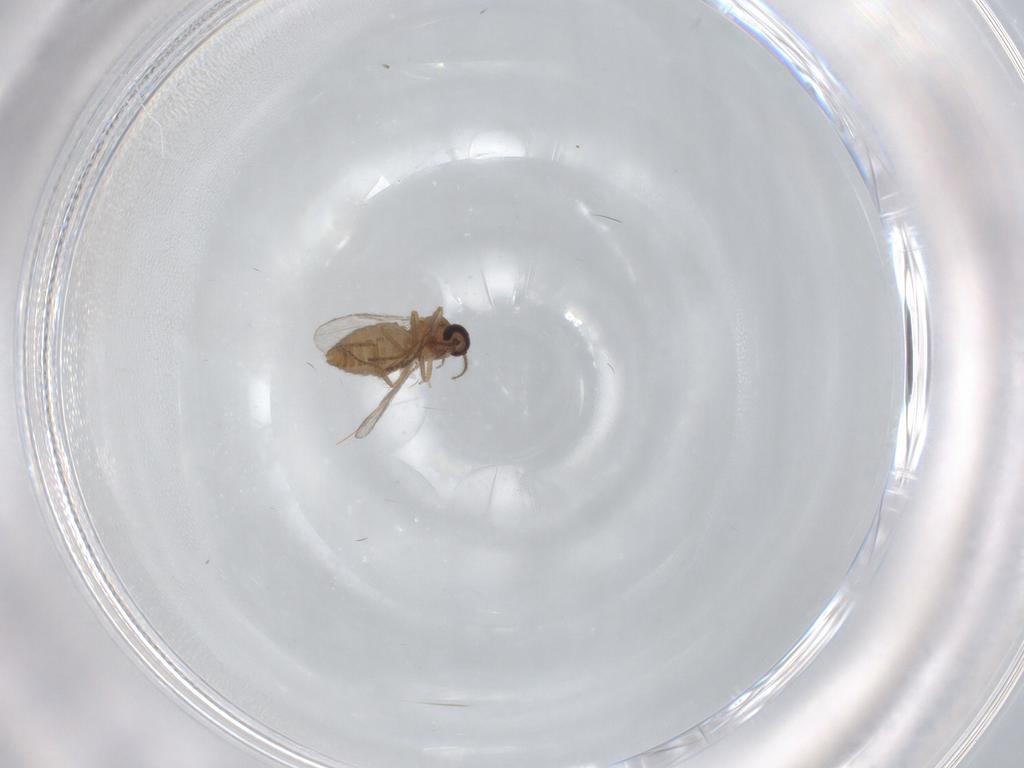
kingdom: Animalia
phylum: Arthropoda
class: Insecta
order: Diptera
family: Ceratopogonidae
